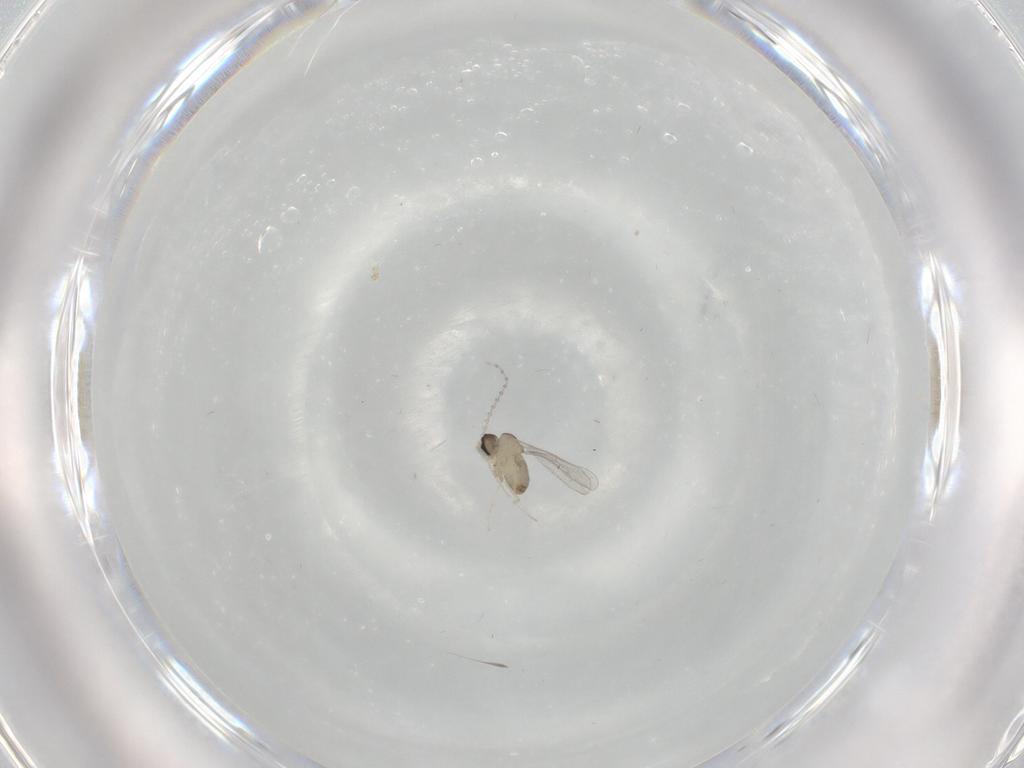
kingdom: Animalia
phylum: Arthropoda
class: Insecta
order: Diptera
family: Cecidomyiidae
